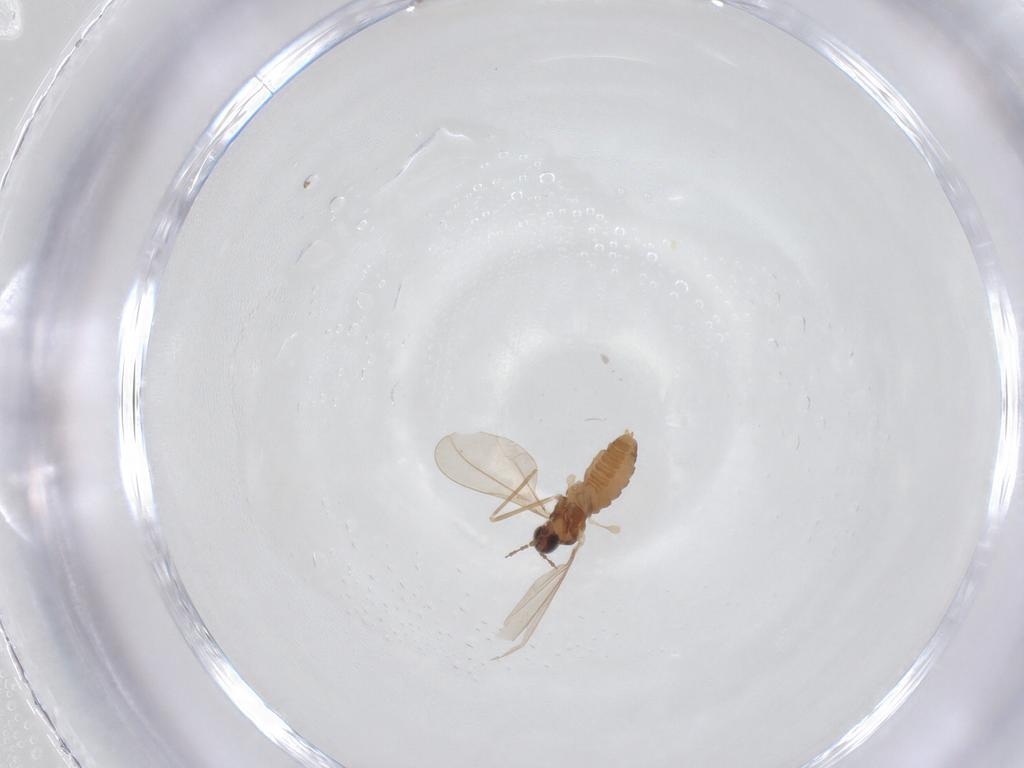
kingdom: Animalia
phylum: Arthropoda
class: Insecta
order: Diptera
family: Cecidomyiidae
